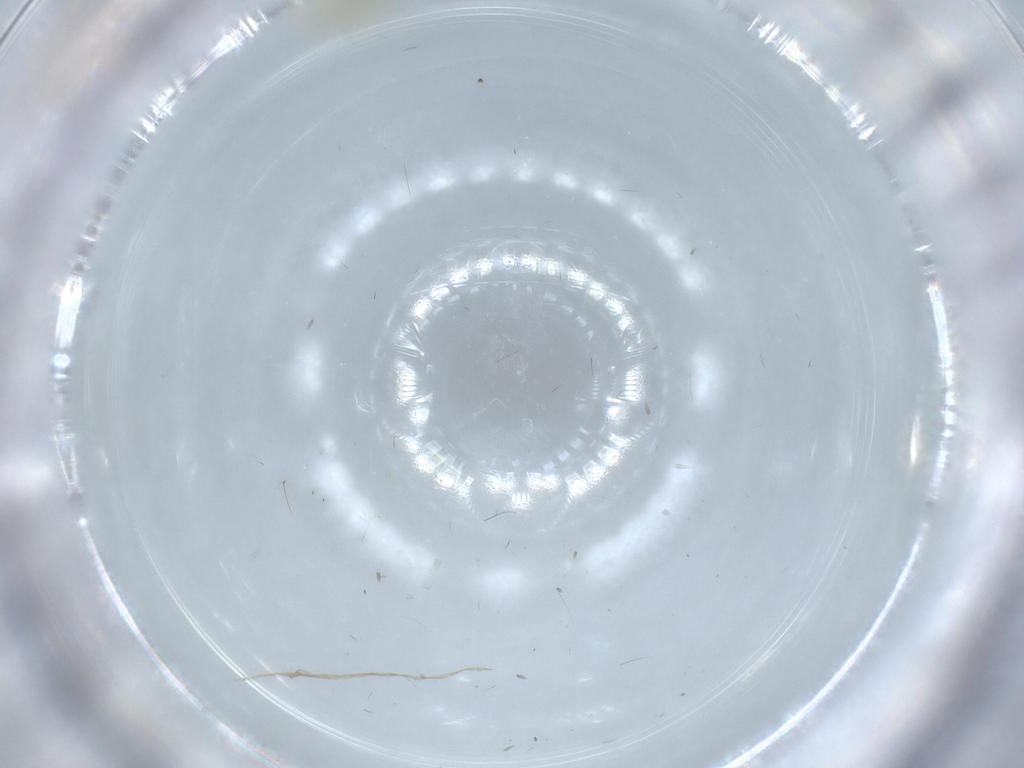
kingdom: Animalia
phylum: Arthropoda
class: Insecta
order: Hemiptera
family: Aleyrodidae
